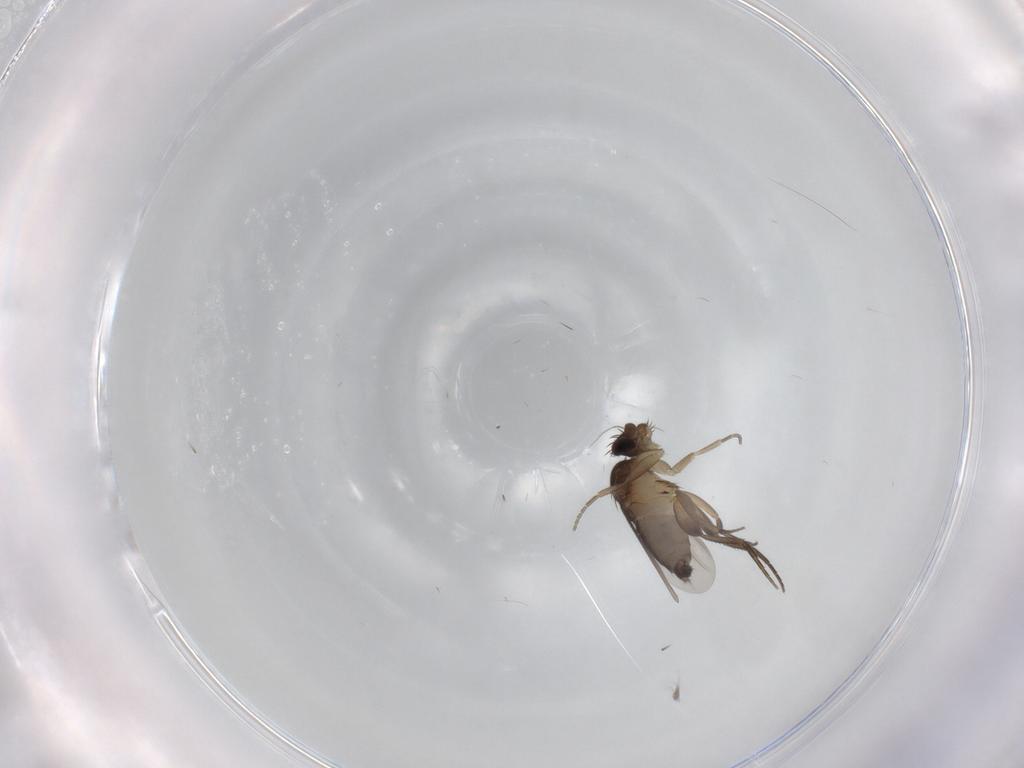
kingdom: Animalia
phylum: Arthropoda
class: Insecta
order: Diptera
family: Phoridae
